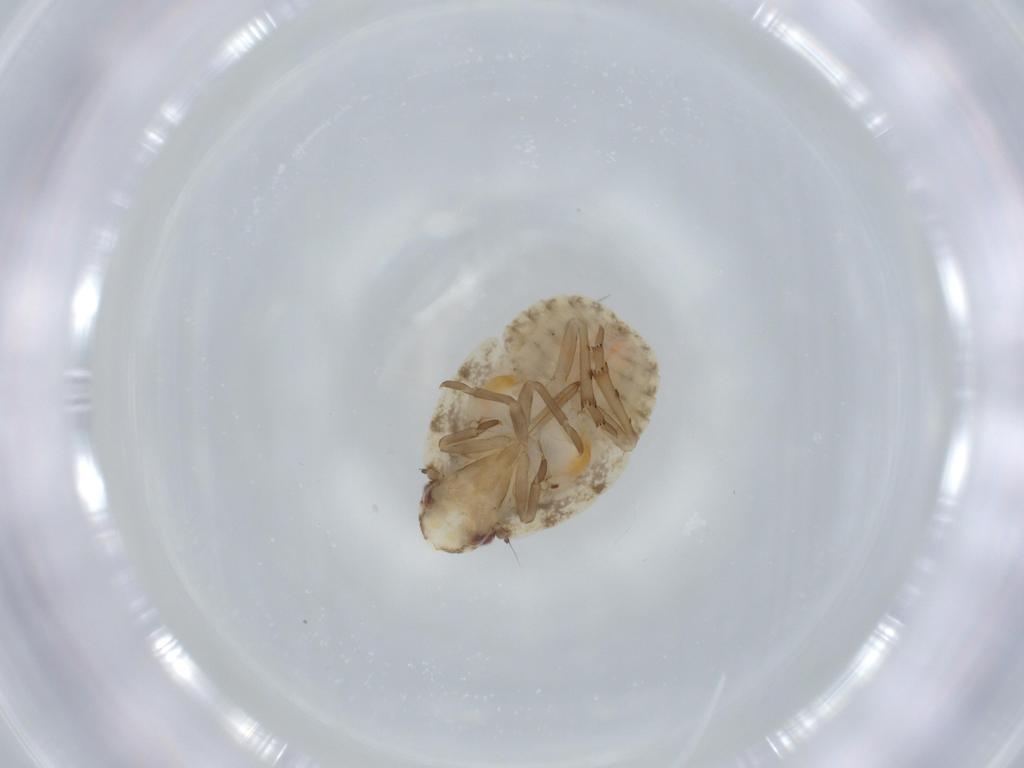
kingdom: Animalia
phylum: Arthropoda
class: Insecta
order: Hemiptera
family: Flatidae
